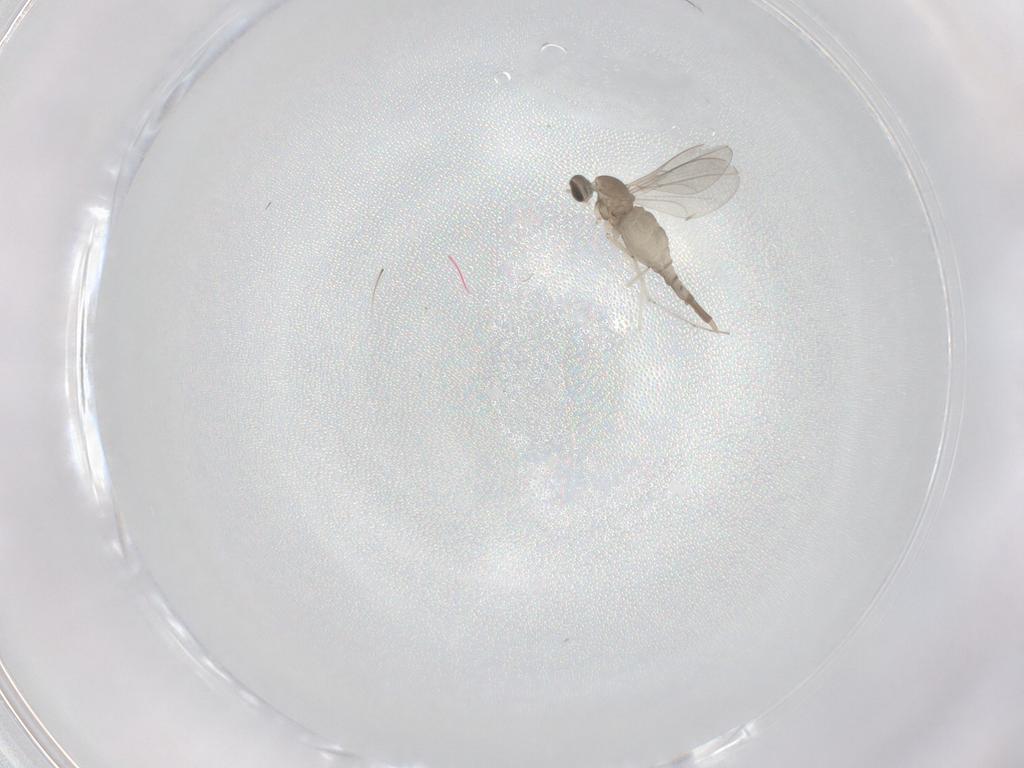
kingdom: Animalia
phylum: Arthropoda
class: Insecta
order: Diptera
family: Cecidomyiidae
